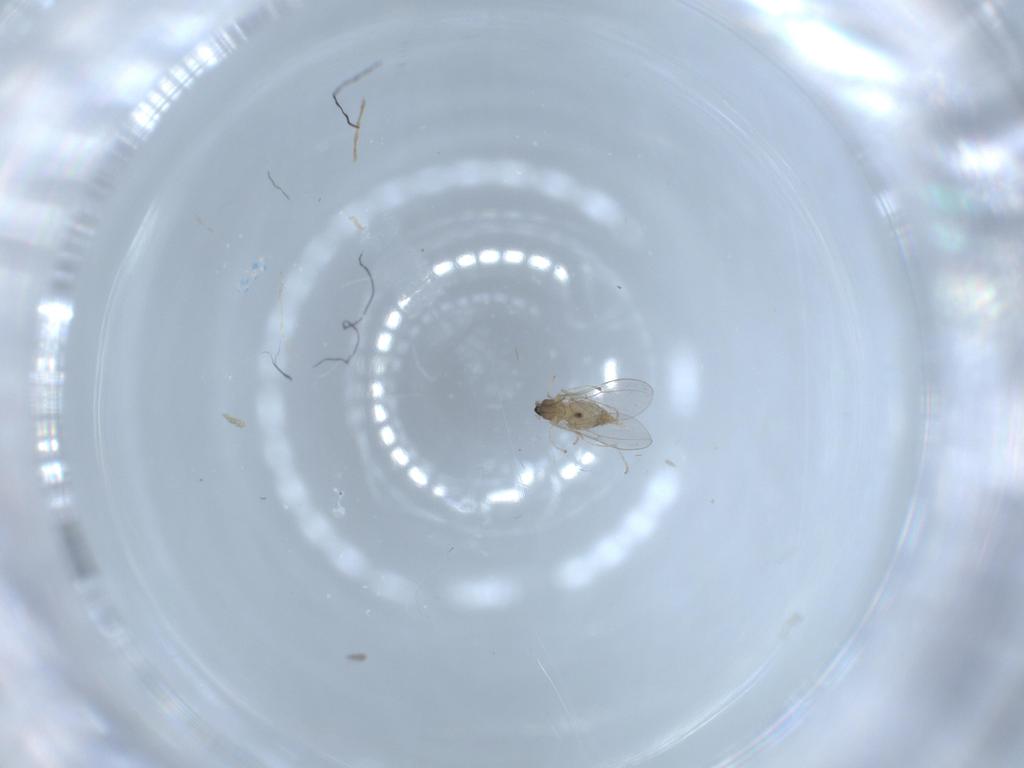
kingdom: Animalia
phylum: Arthropoda
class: Insecta
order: Diptera
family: Cecidomyiidae
